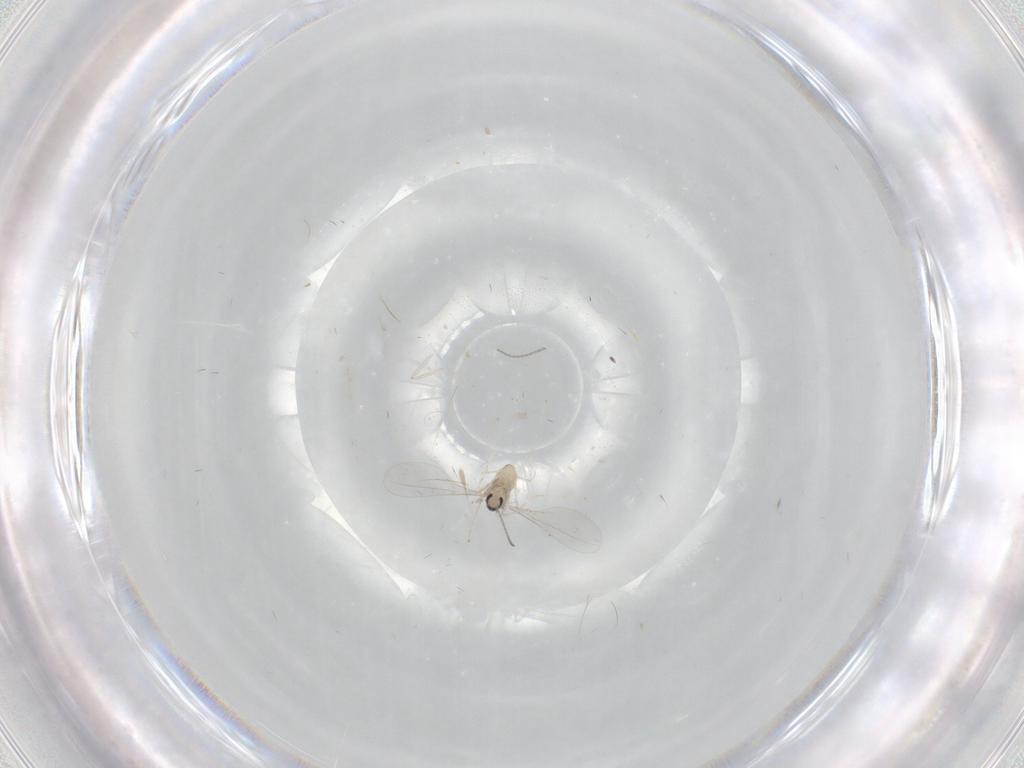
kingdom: Animalia
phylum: Arthropoda
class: Insecta
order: Diptera
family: Cecidomyiidae
